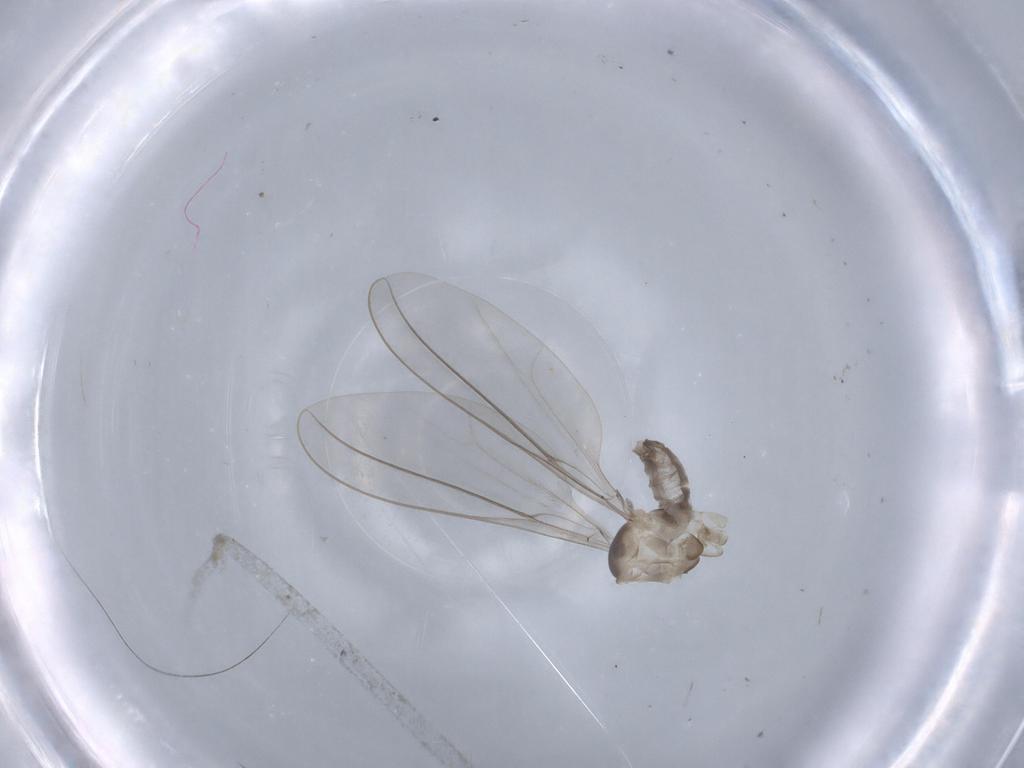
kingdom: Animalia
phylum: Arthropoda
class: Insecta
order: Diptera
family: Cecidomyiidae
